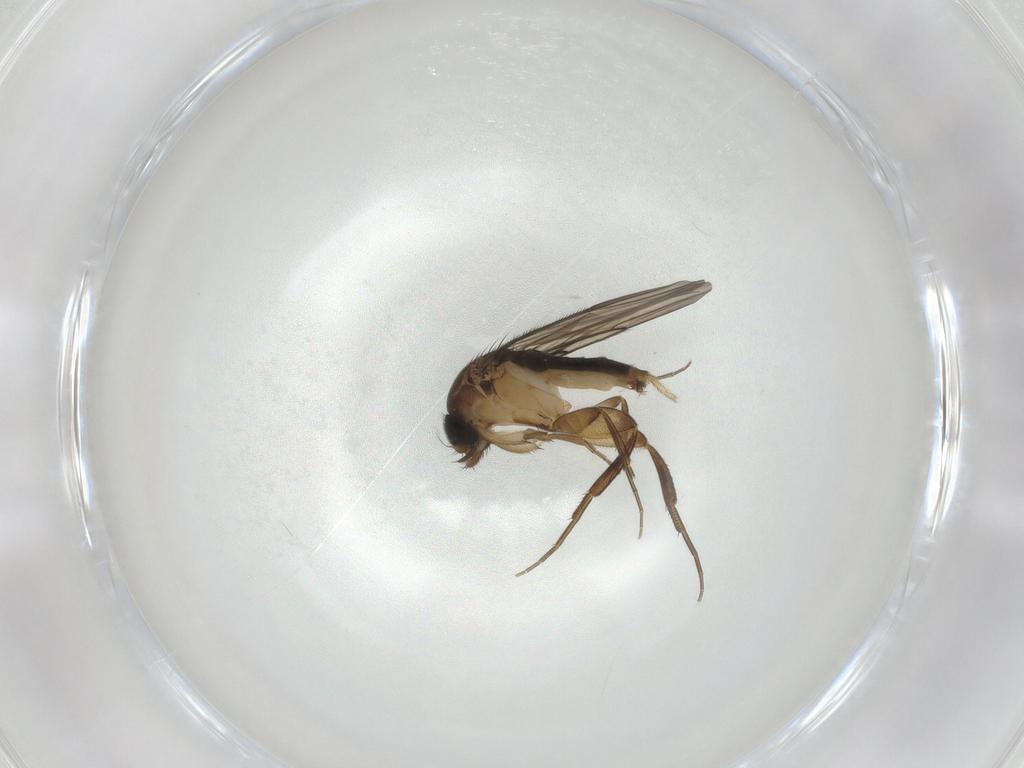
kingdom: Animalia
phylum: Arthropoda
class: Insecta
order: Diptera
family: Phoridae
